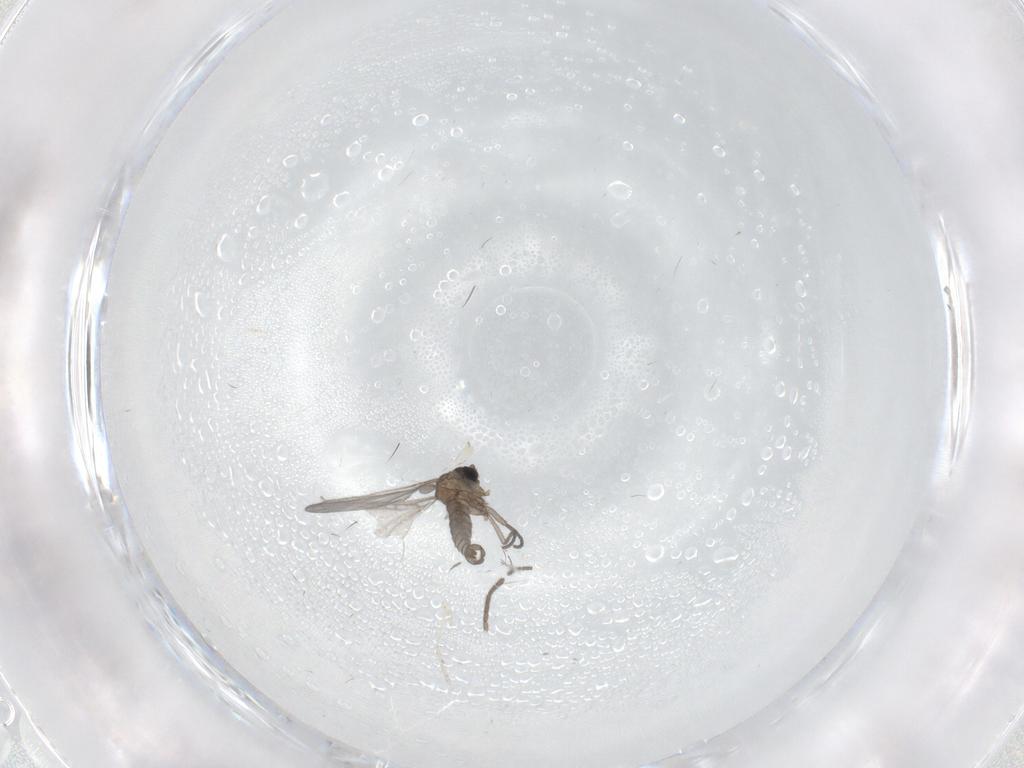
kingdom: Animalia
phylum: Arthropoda
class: Insecta
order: Diptera
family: Sciaridae
